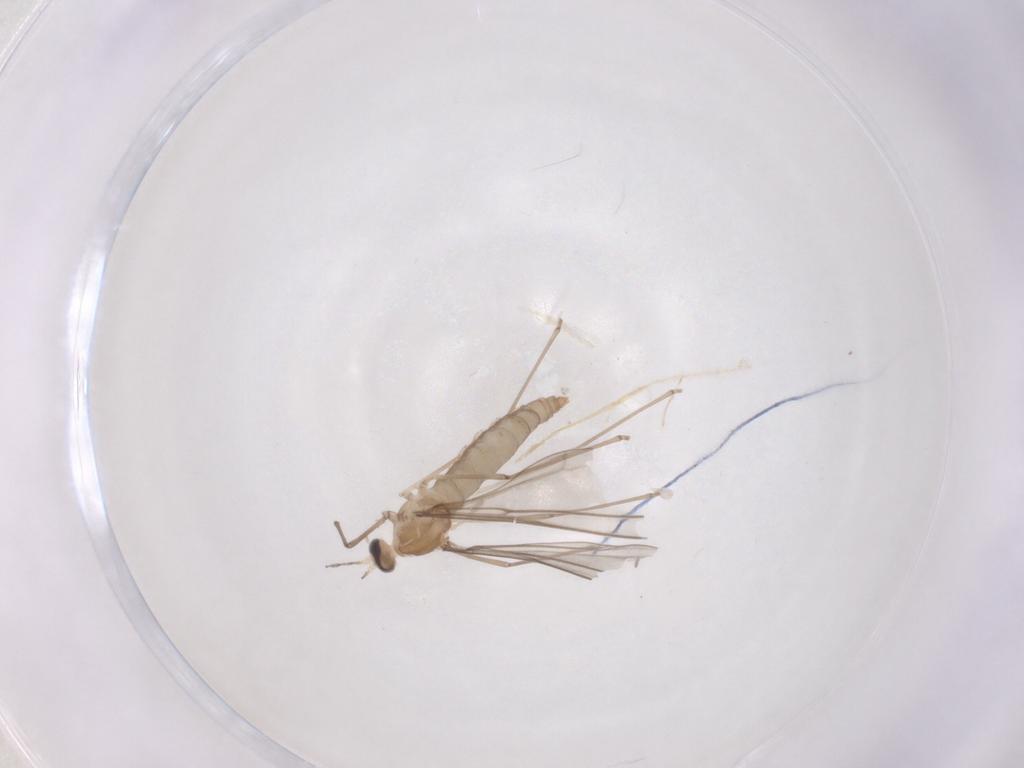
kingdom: Animalia
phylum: Arthropoda
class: Insecta
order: Diptera
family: Cecidomyiidae
